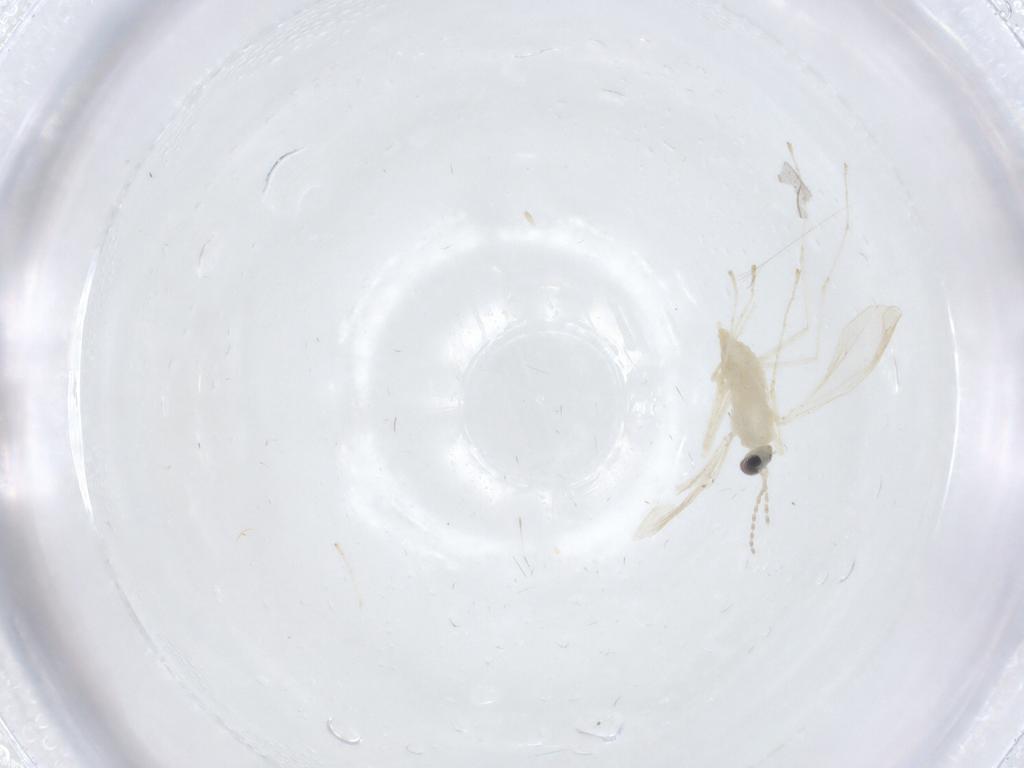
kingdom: Animalia
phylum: Arthropoda
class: Insecta
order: Diptera
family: Cecidomyiidae
